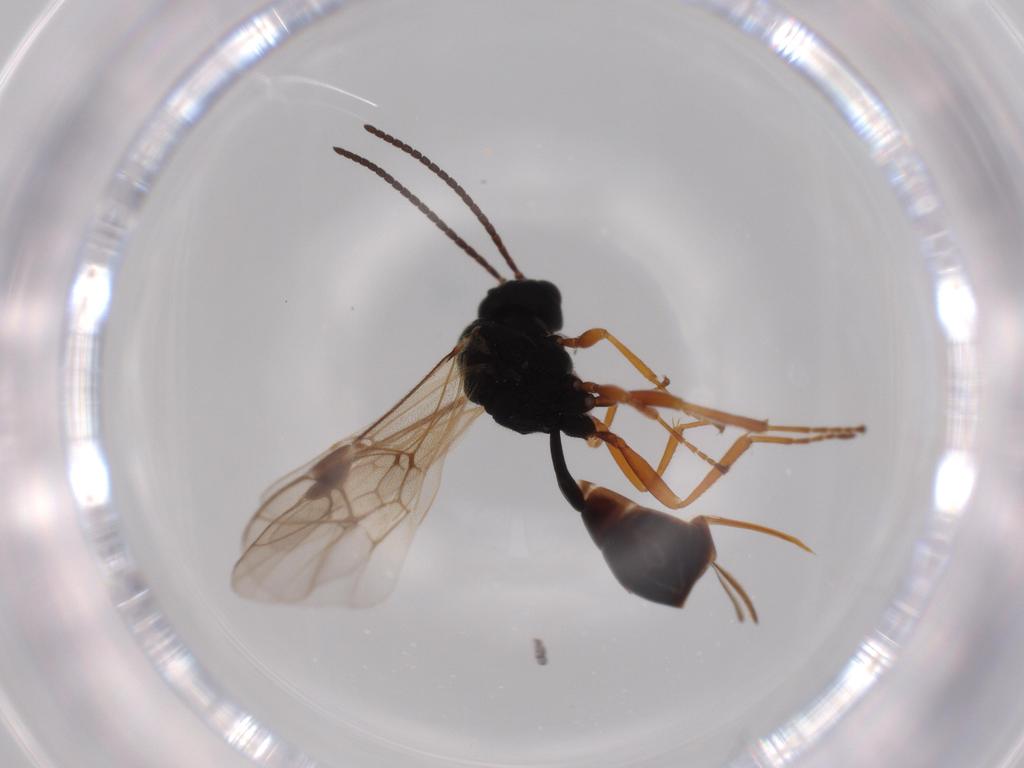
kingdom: Animalia
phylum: Arthropoda
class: Insecta
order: Hymenoptera
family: Ichneumonidae
